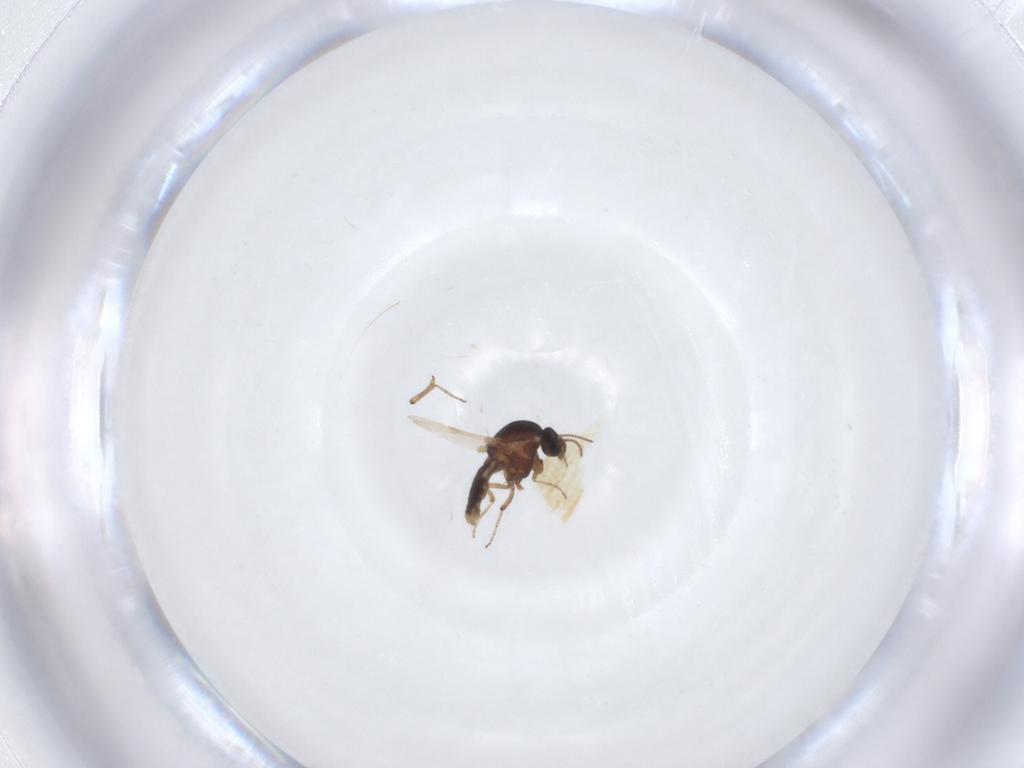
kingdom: Animalia
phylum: Arthropoda
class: Insecta
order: Diptera
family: Ceratopogonidae
